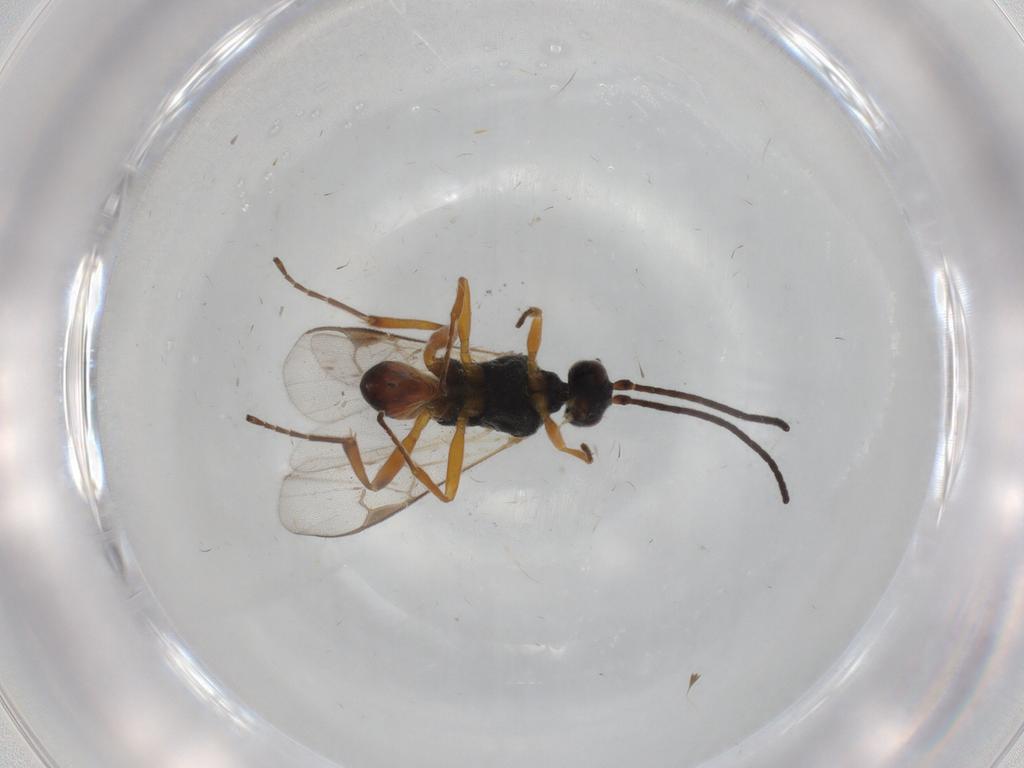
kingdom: Animalia
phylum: Arthropoda
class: Insecta
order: Hymenoptera
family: Braconidae
